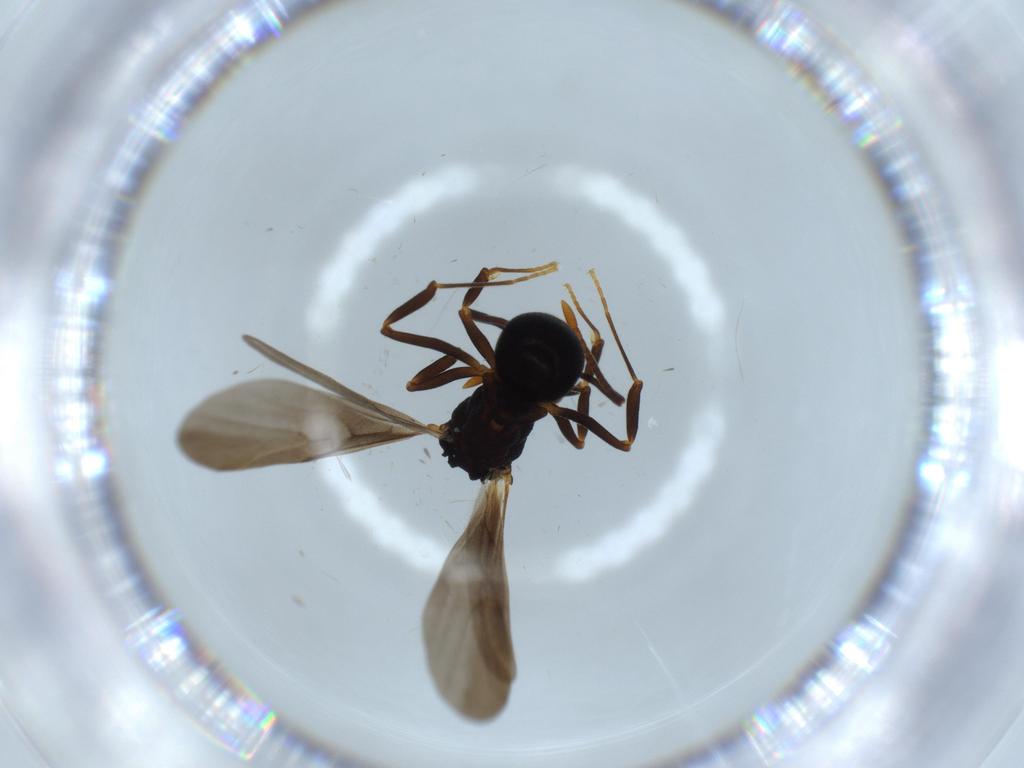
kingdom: Animalia
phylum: Arthropoda
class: Insecta
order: Hymenoptera
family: Formicidae
